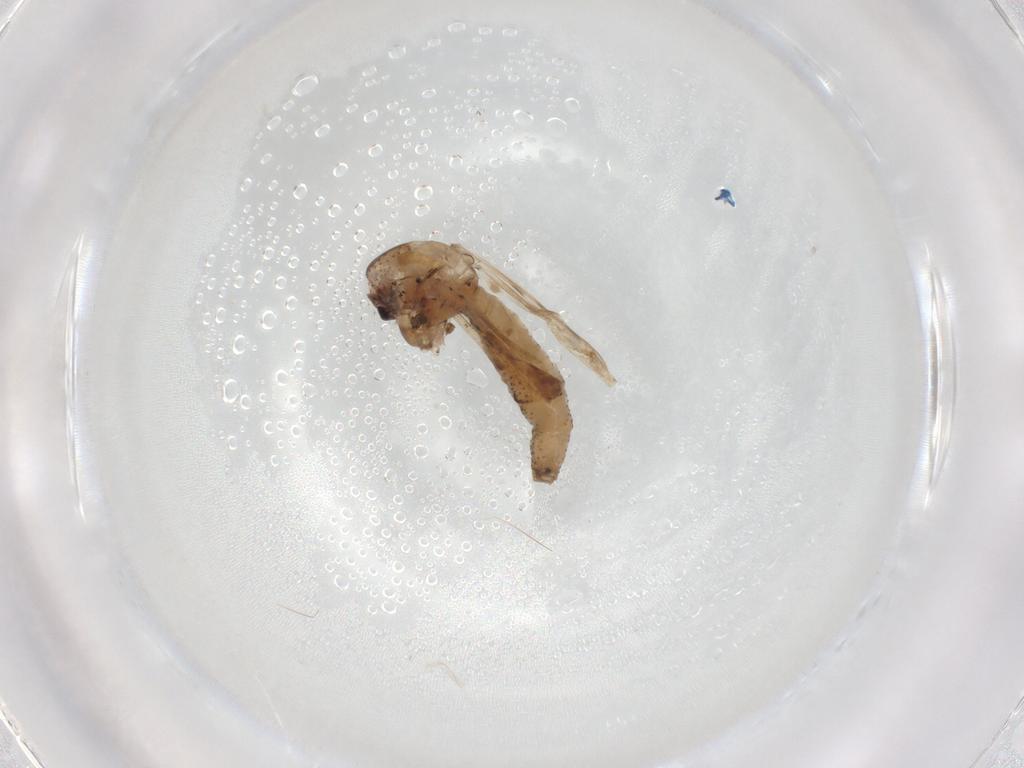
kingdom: Animalia
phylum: Arthropoda
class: Insecta
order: Diptera
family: Chaoboridae
